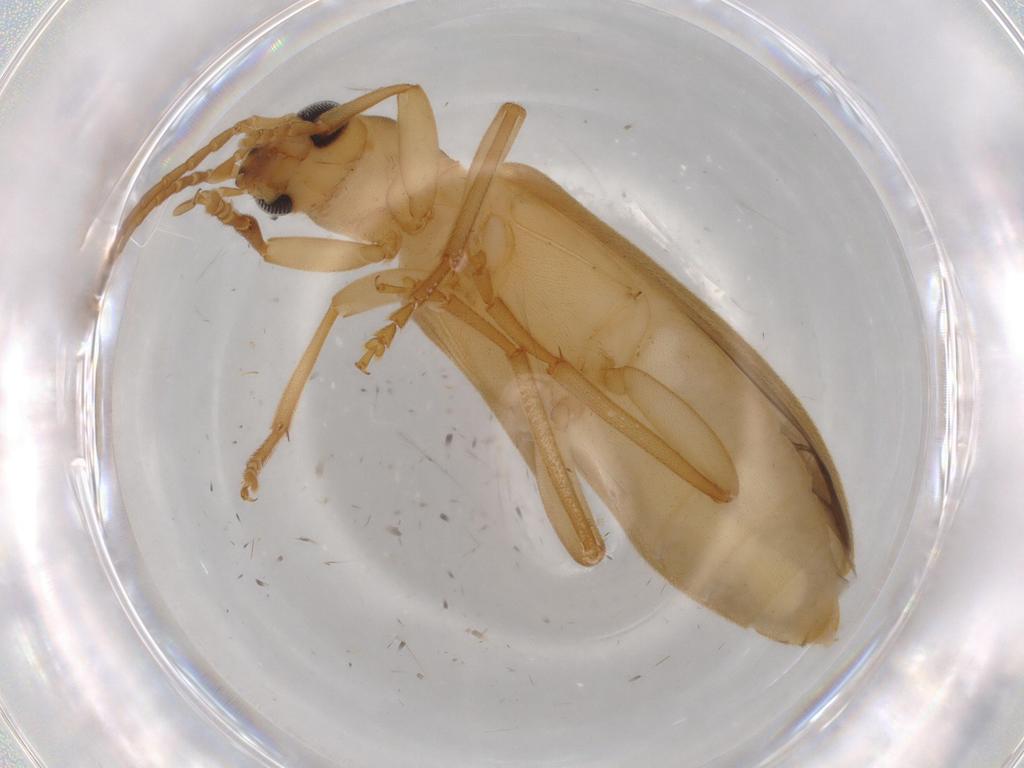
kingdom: Animalia
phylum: Arthropoda
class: Insecta
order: Coleoptera
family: Oedemeridae
